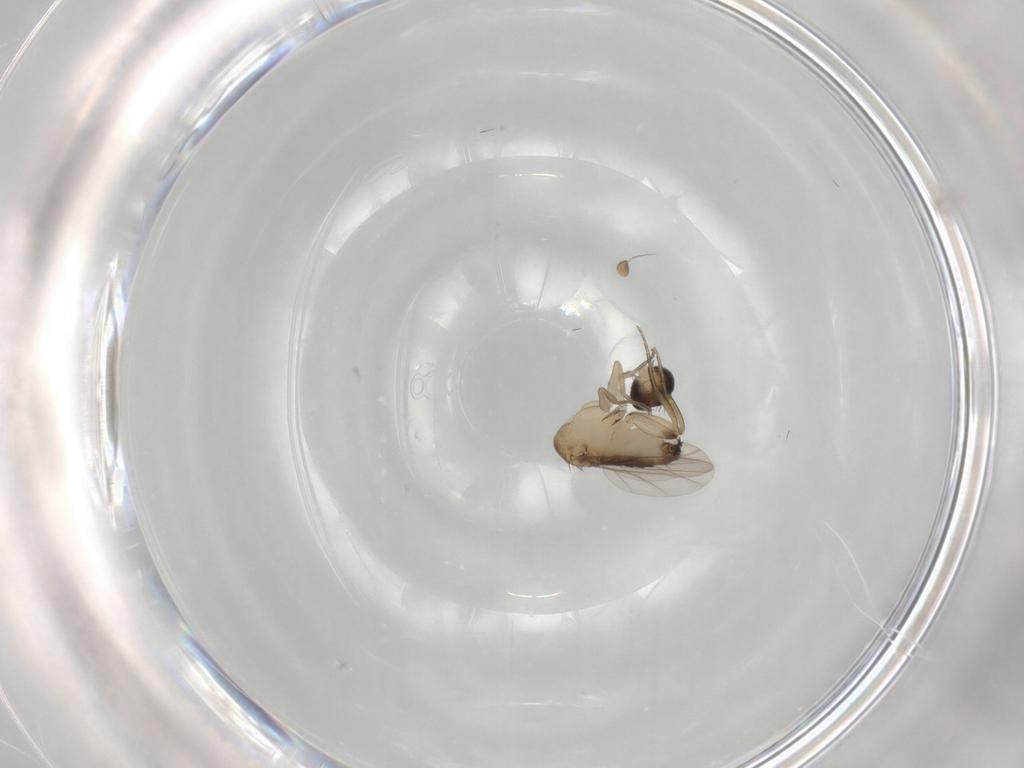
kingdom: Animalia
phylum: Arthropoda
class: Insecta
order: Diptera
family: Phoridae
